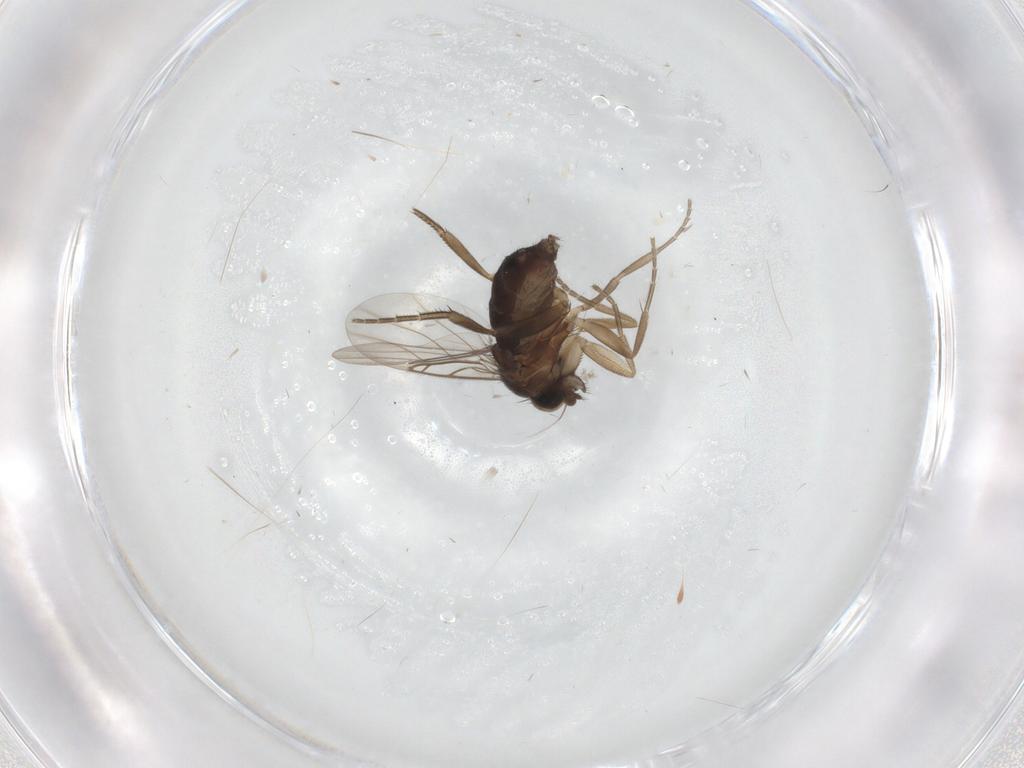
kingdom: Animalia
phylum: Arthropoda
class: Insecta
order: Diptera
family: Phoridae
